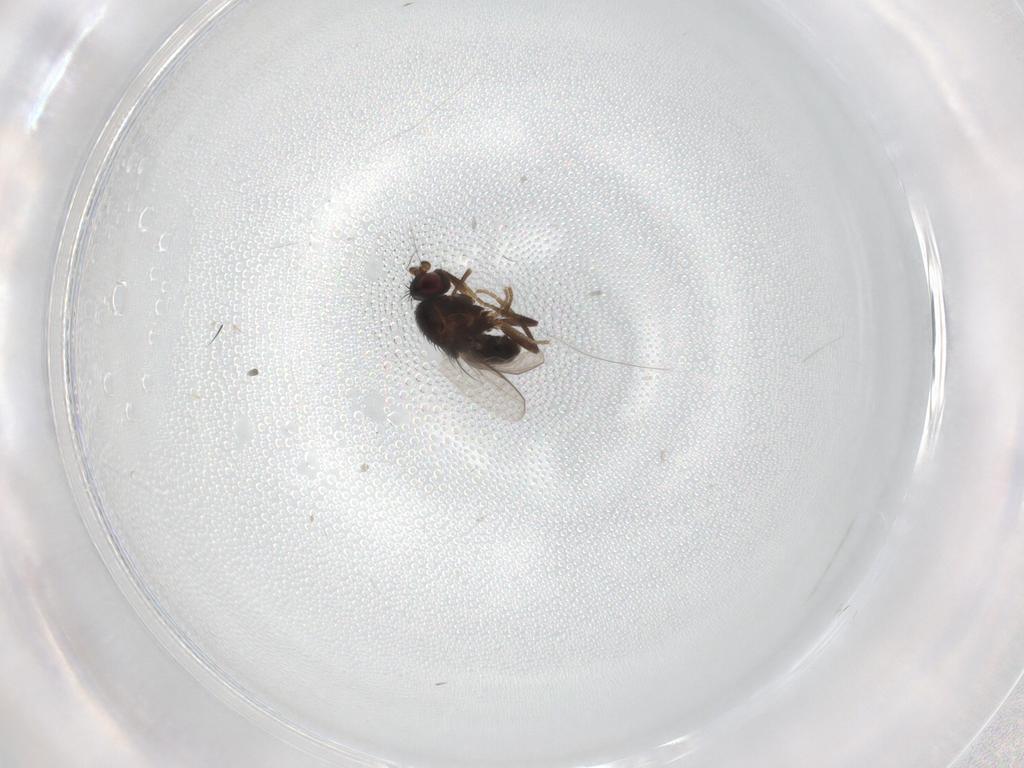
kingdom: Animalia
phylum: Arthropoda
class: Insecta
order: Diptera
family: Sphaeroceridae
